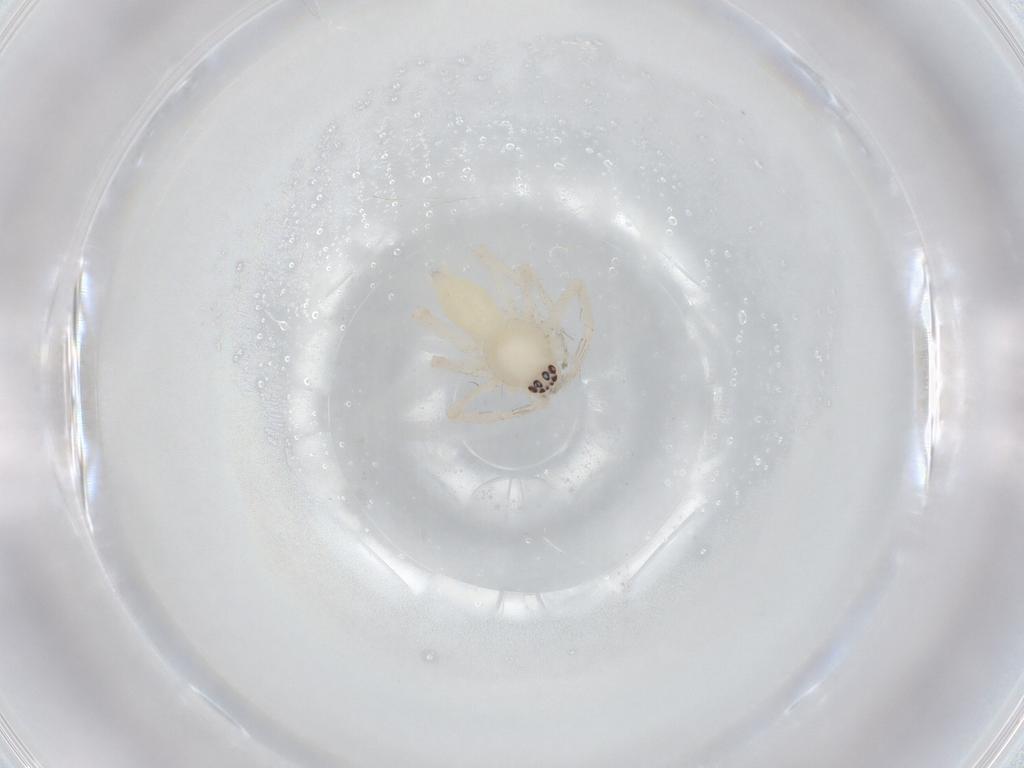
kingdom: Animalia
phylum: Arthropoda
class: Arachnida
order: Araneae
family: Anyphaenidae
